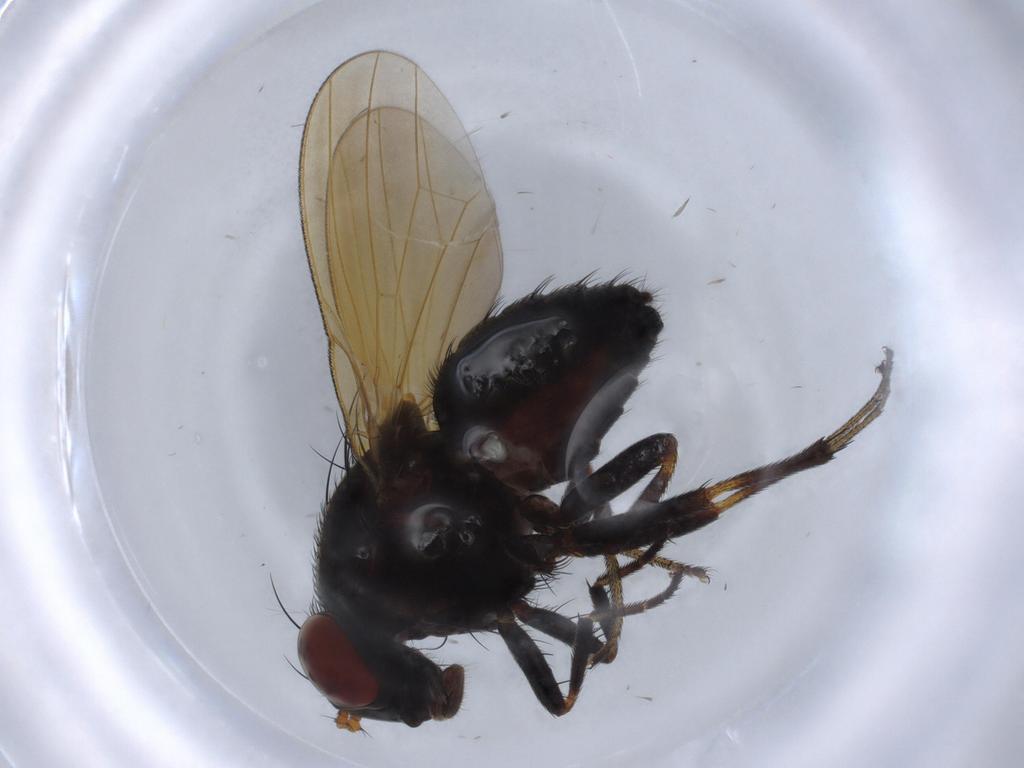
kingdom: Animalia
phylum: Arthropoda
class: Insecta
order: Diptera
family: Lauxaniidae
